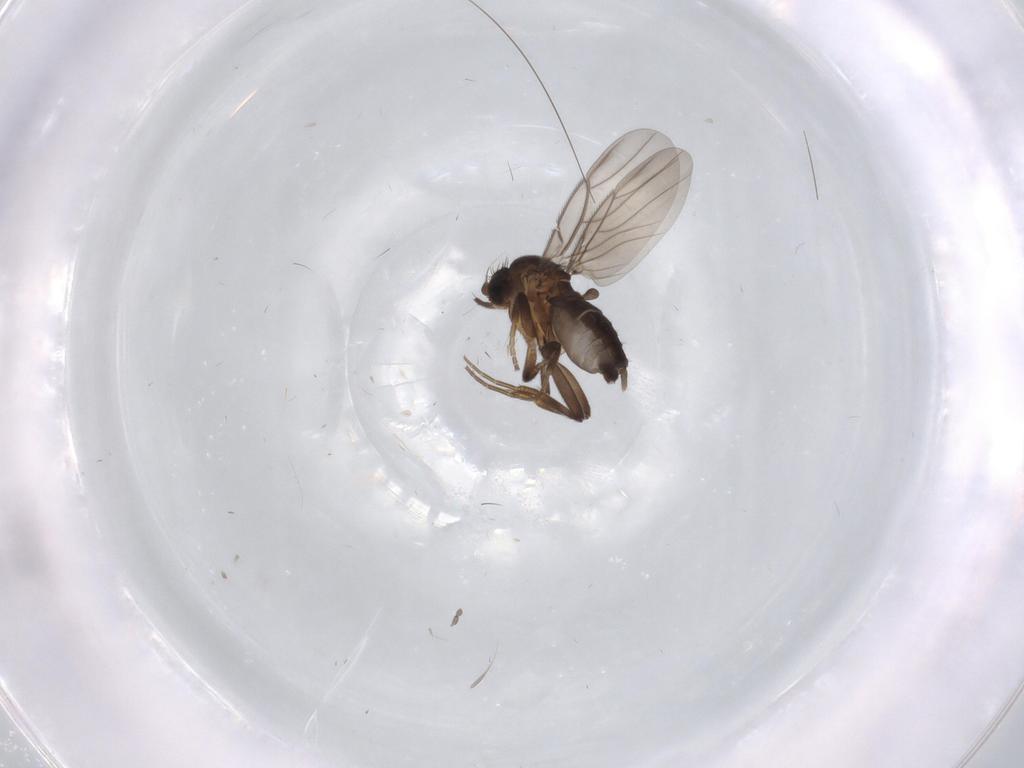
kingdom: Animalia
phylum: Arthropoda
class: Insecta
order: Diptera
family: Phoridae
